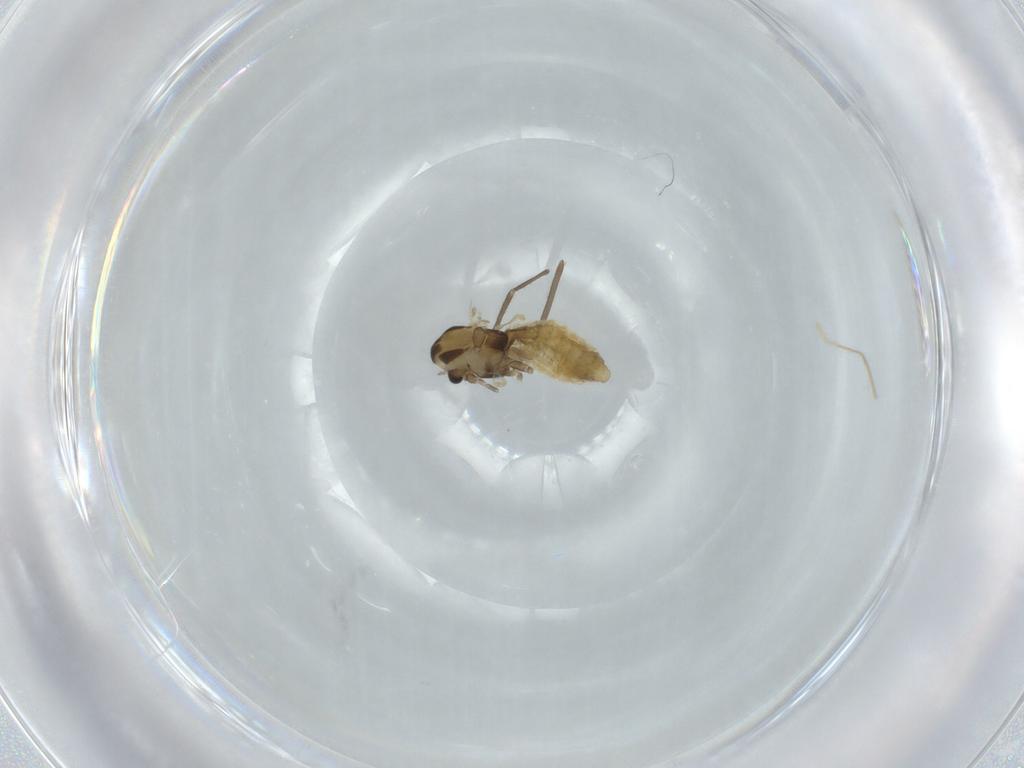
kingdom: Animalia
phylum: Arthropoda
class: Insecta
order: Diptera
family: Chironomidae
